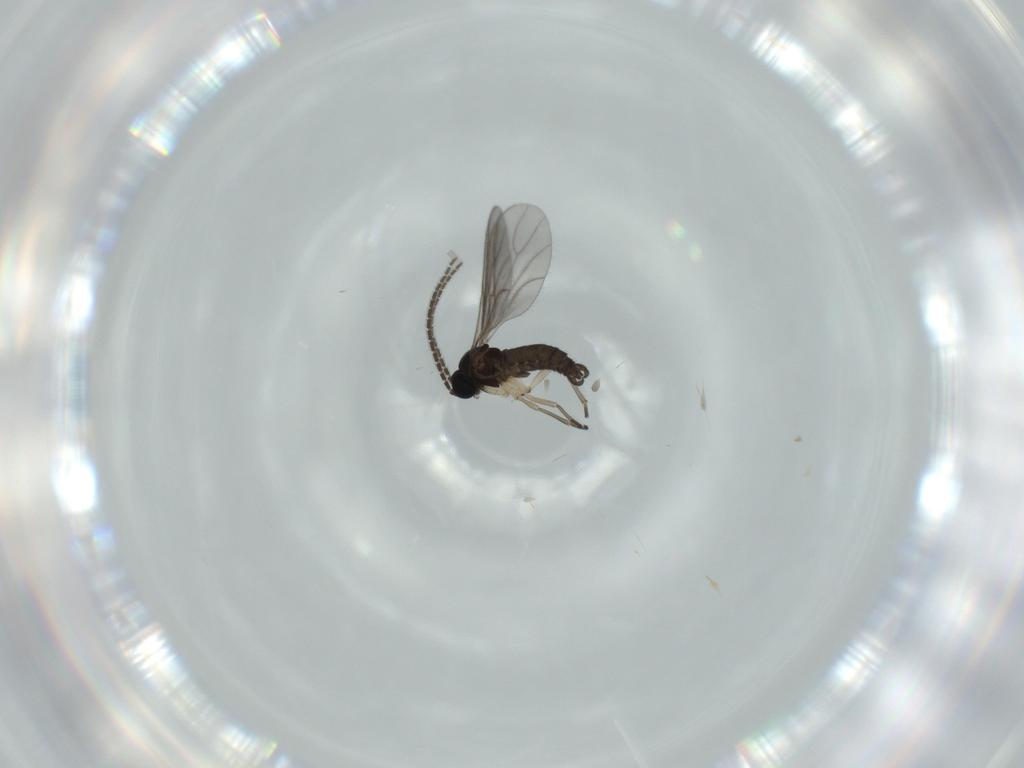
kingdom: Animalia
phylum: Arthropoda
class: Insecta
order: Diptera
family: Sciaridae
